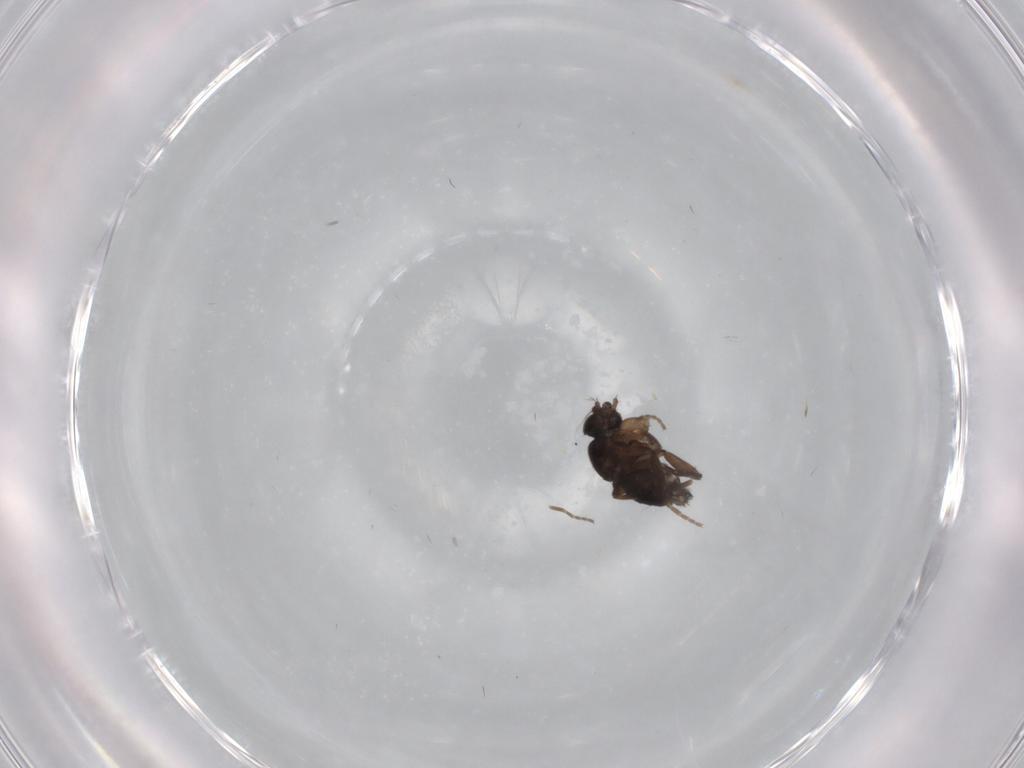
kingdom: Animalia
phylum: Arthropoda
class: Insecta
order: Diptera
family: Phoridae
